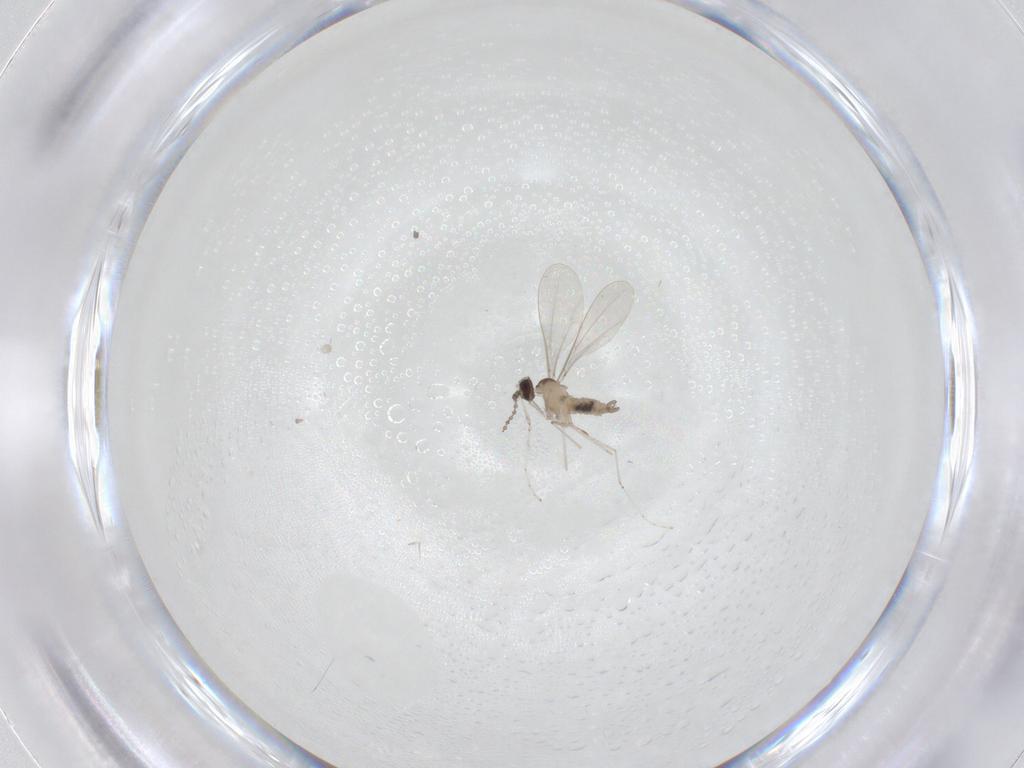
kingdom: Animalia
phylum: Arthropoda
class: Insecta
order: Diptera
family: Cecidomyiidae
